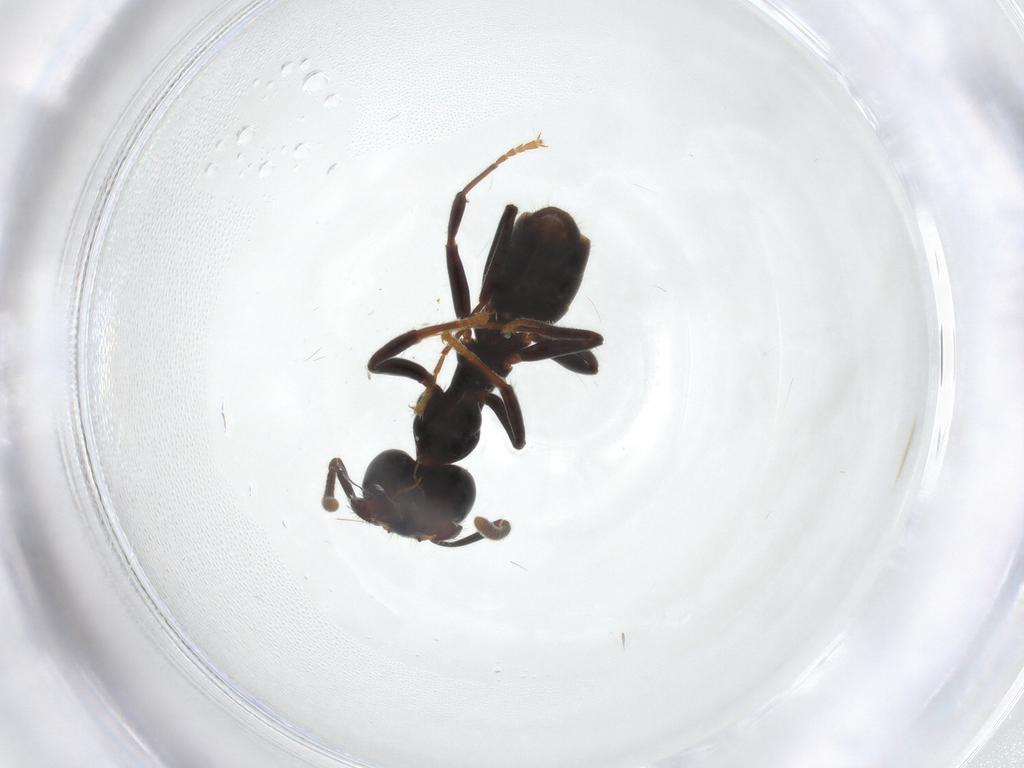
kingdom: Animalia
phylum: Arthropoda
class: Insecta
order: Hymenoptera
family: Formicidae
